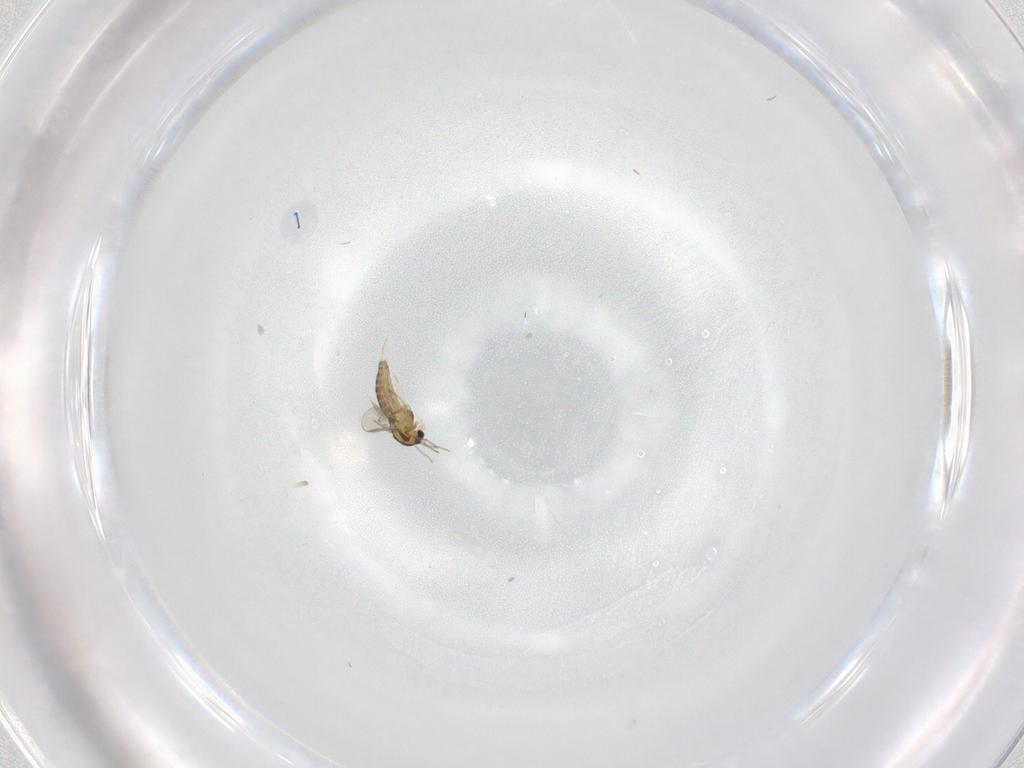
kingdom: Animalia
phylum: Arthropoda
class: Insecta
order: Diptera
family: Chironomidae
